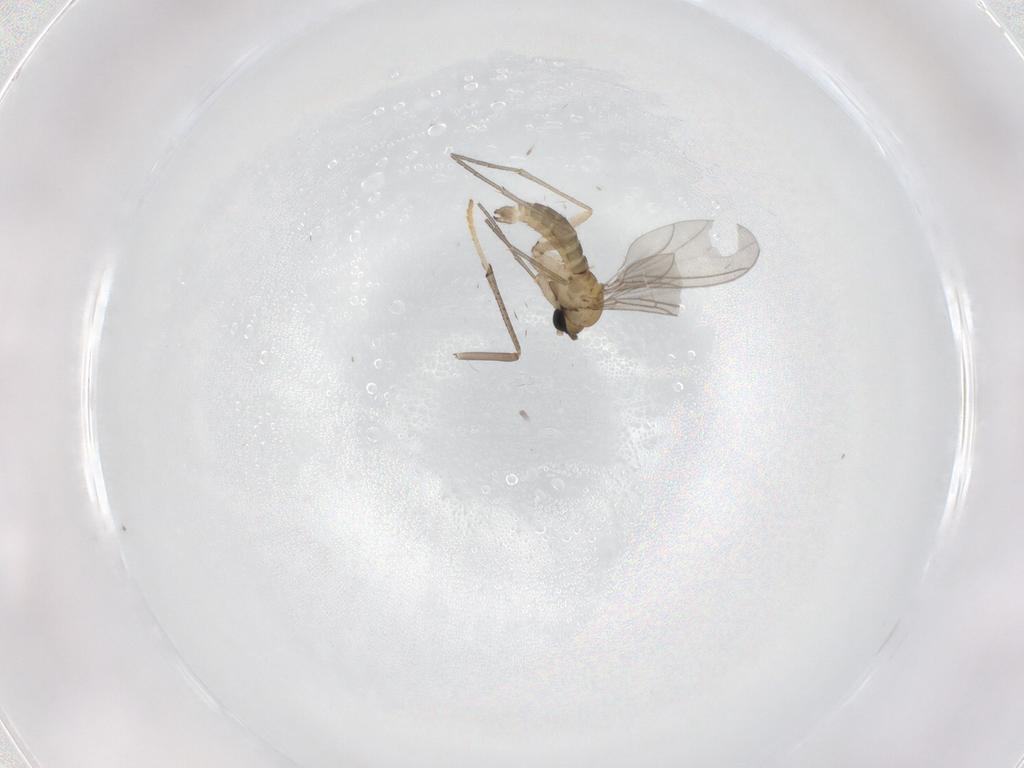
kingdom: Animalia
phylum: Arthropoda
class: Insecta
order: Diptera
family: Sciaridae
